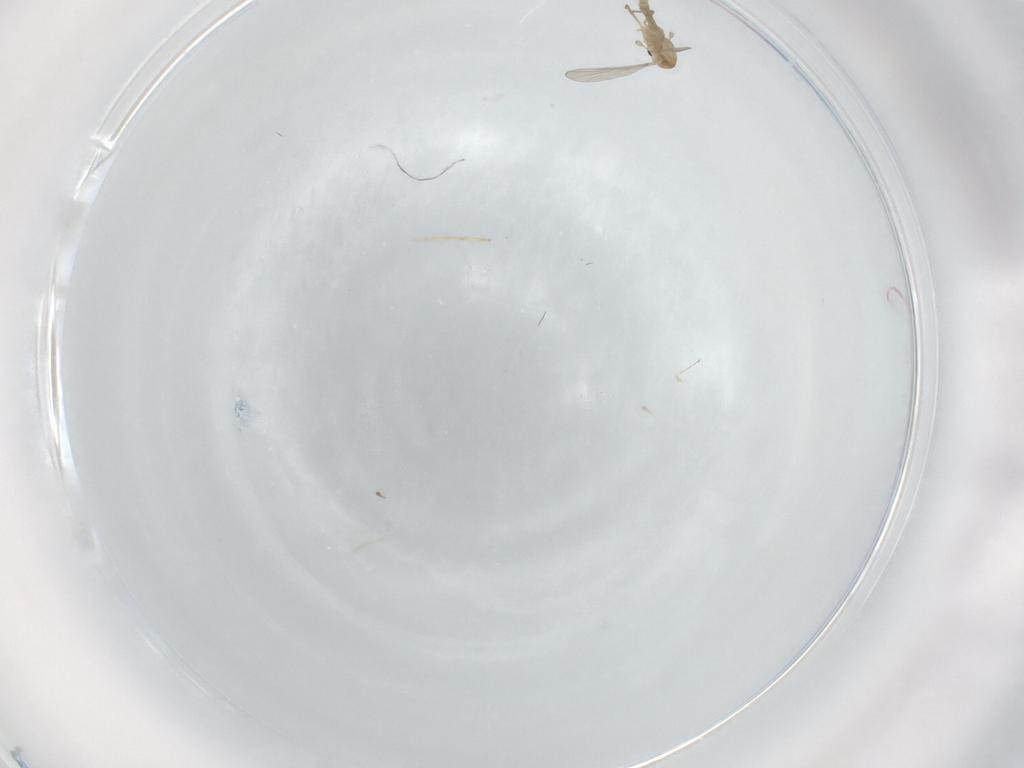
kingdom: Animalia
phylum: Arthropoda
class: Insecta
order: Diptera
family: Chironomidae
